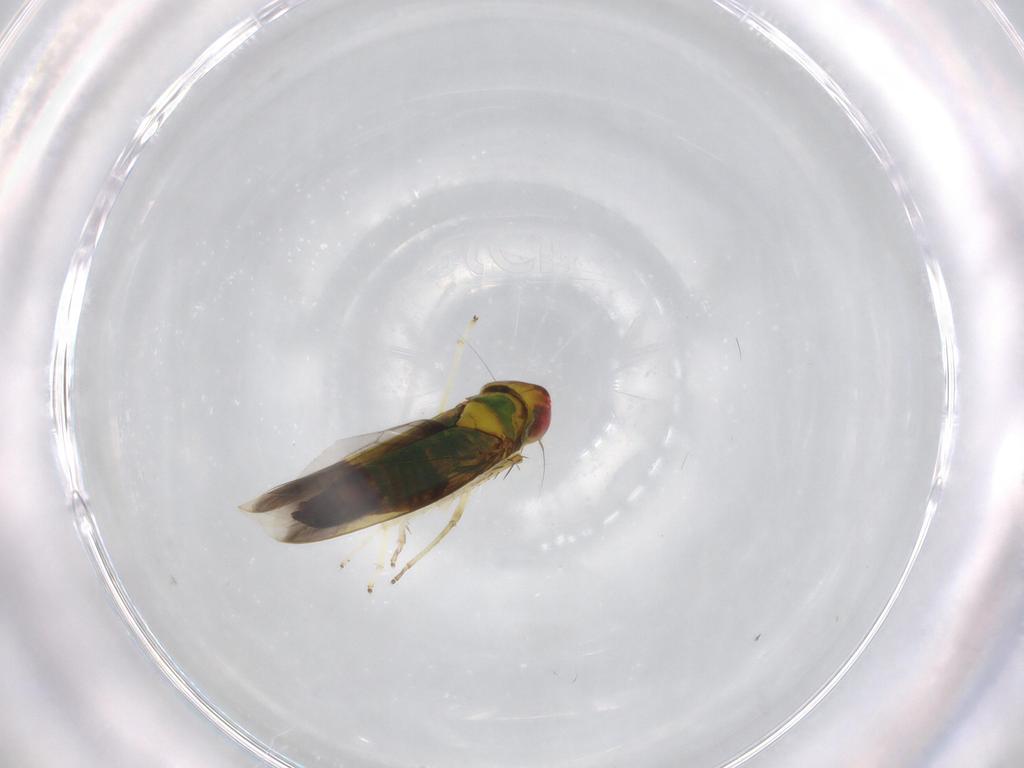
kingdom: Animalia
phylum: Arthropoda
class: Insecta
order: Hemiptera
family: Cicadellidae
